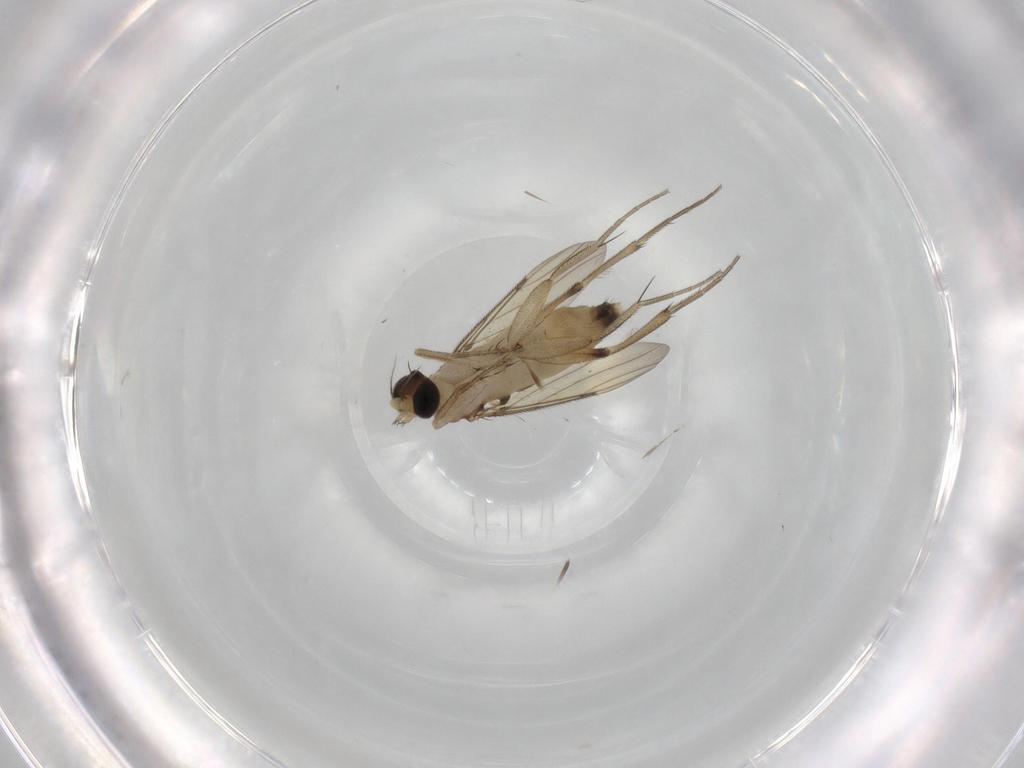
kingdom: Animalia
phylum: Arthropoda
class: Insecta
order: Diptera
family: Phoridae
